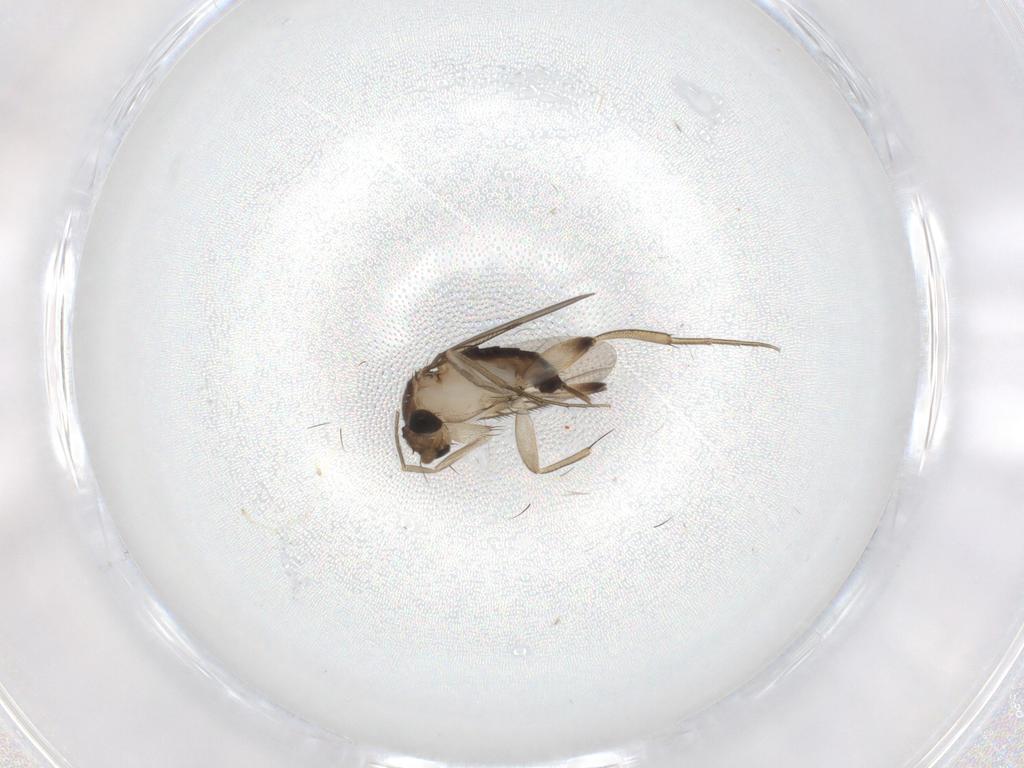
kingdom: Animalia
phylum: Arthropoda
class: Insecta
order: Diptera
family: Phoridae
